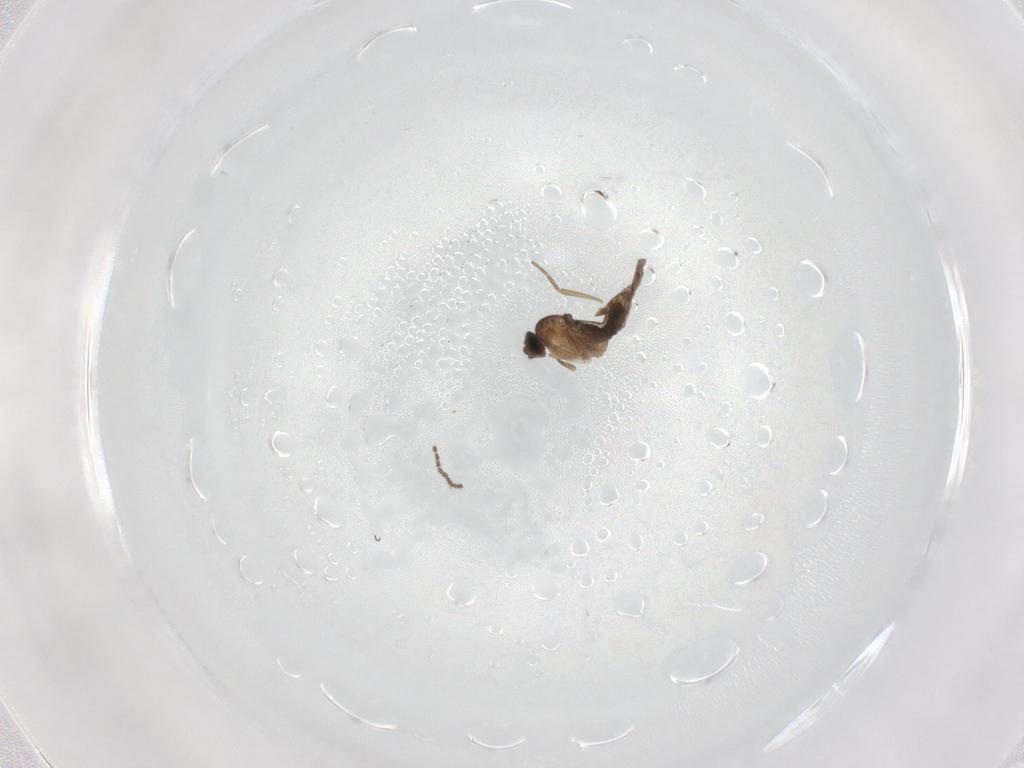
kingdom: Animalia
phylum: Arthropoda
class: Insecta
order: Diptera
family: Phoridae
